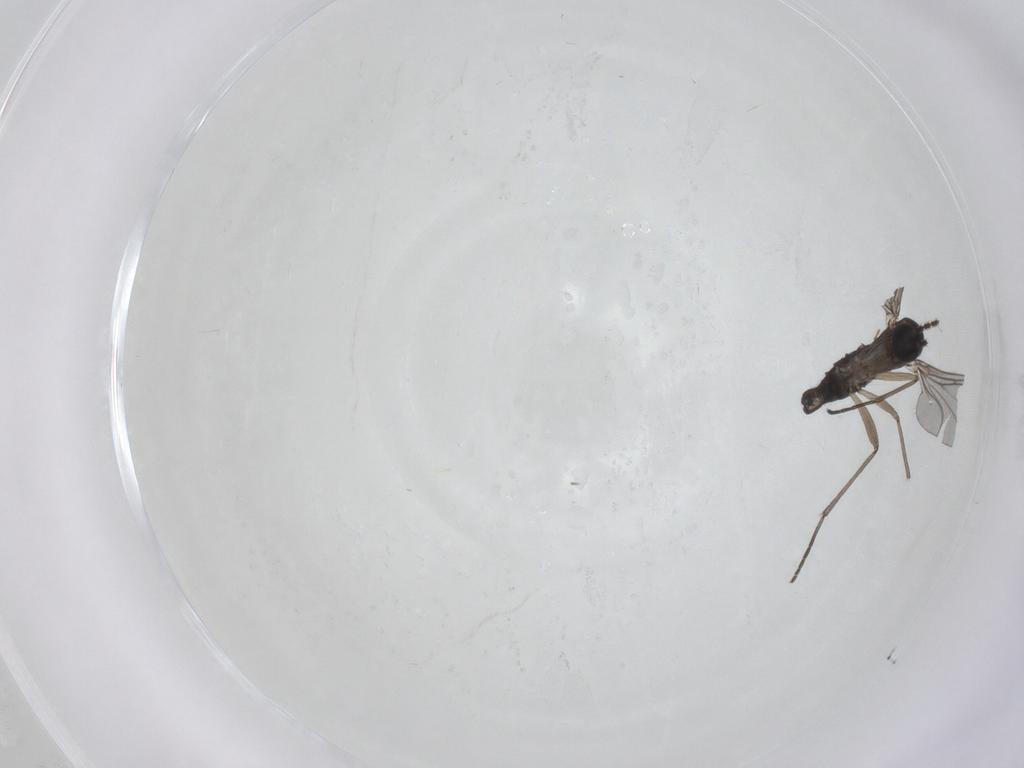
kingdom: Animalia
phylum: Arthropoda
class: Insecta
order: Diptera
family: Sciaridae
